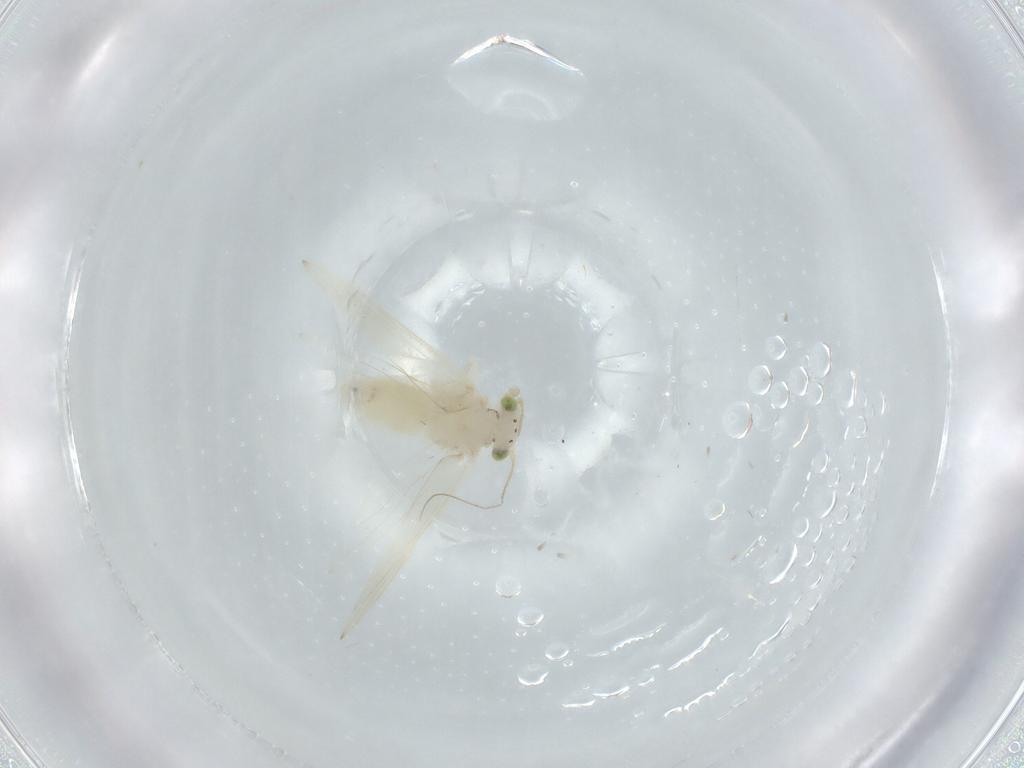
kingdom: Animalia
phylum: Arthropoda
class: Insecta
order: Psocodea
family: Lepidopsocidae
